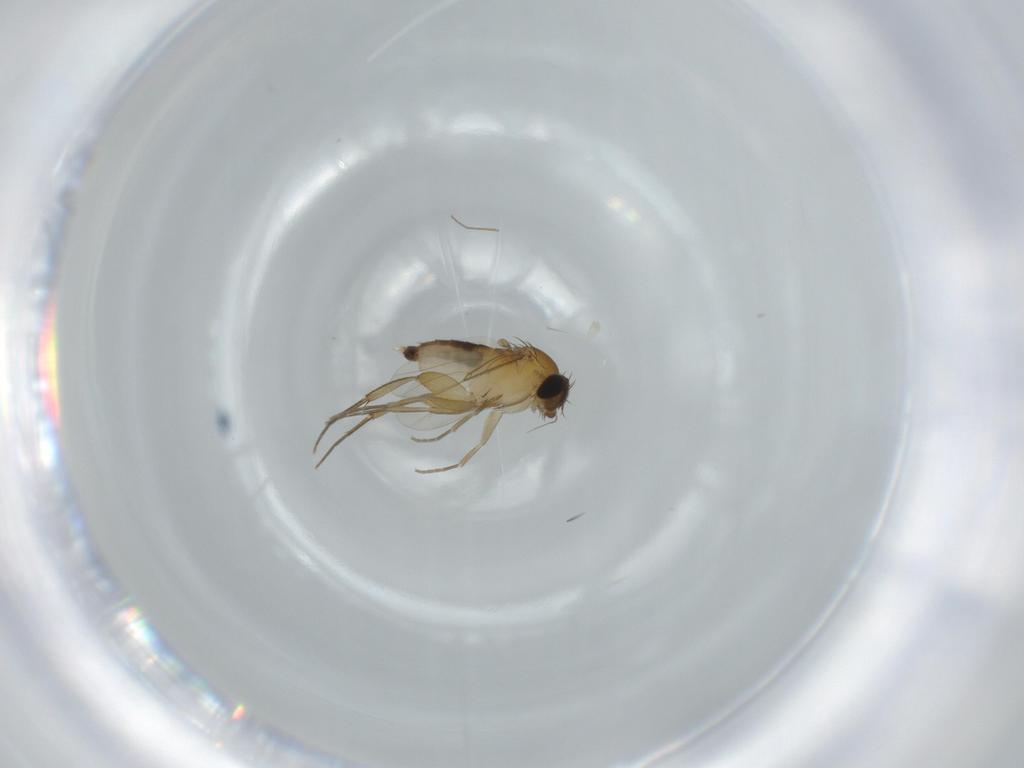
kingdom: Animalia
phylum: Arthropoda
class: Insecta
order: Diptera
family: Phoridae
